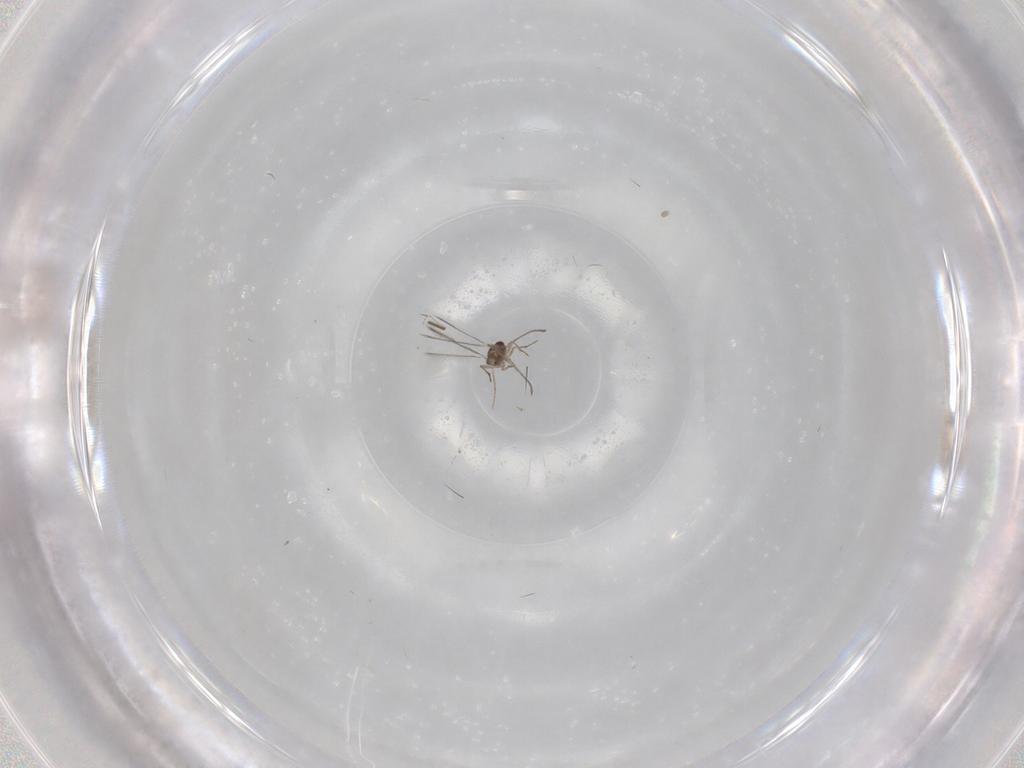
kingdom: Animalia
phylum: Arthropoda
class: Insecta
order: Hymenoptera
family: Mymaridae
